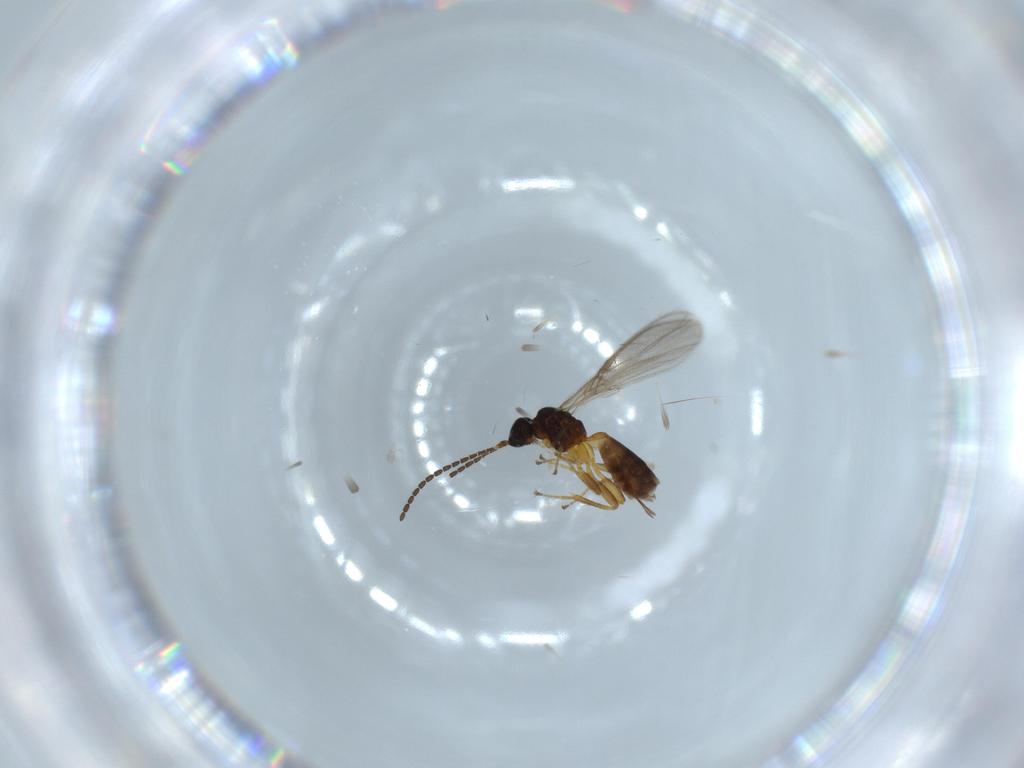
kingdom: Animalia
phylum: Arthropoda
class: Insecta
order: Hymenoptera
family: Braconidae
